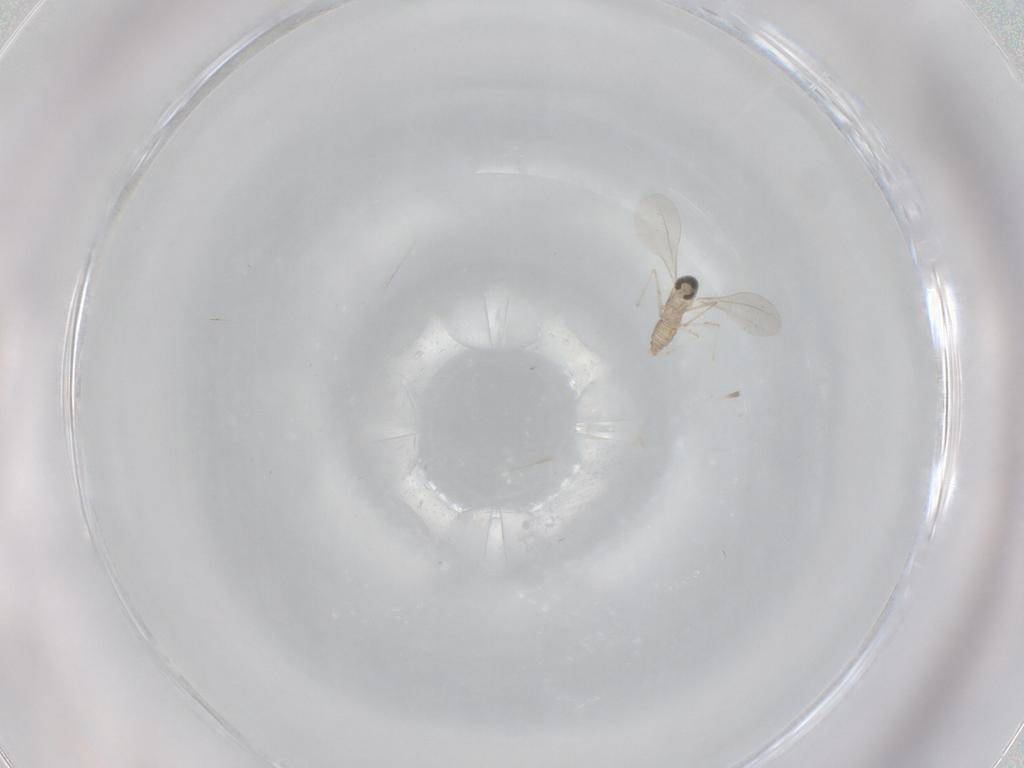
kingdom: Animalia
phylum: Arthropoda
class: Insecta
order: Diptera
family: Cecidomyiidae
